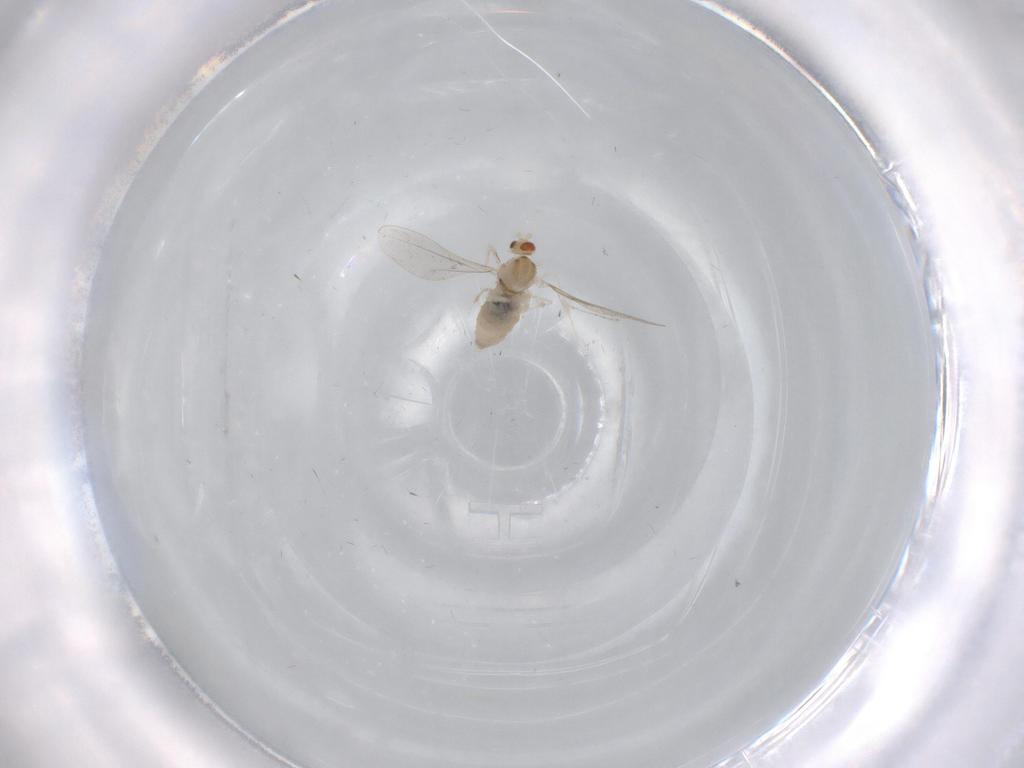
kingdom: Animalia
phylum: Arthropoda
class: Insecta
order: Diptera
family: Cecidomyiidae
